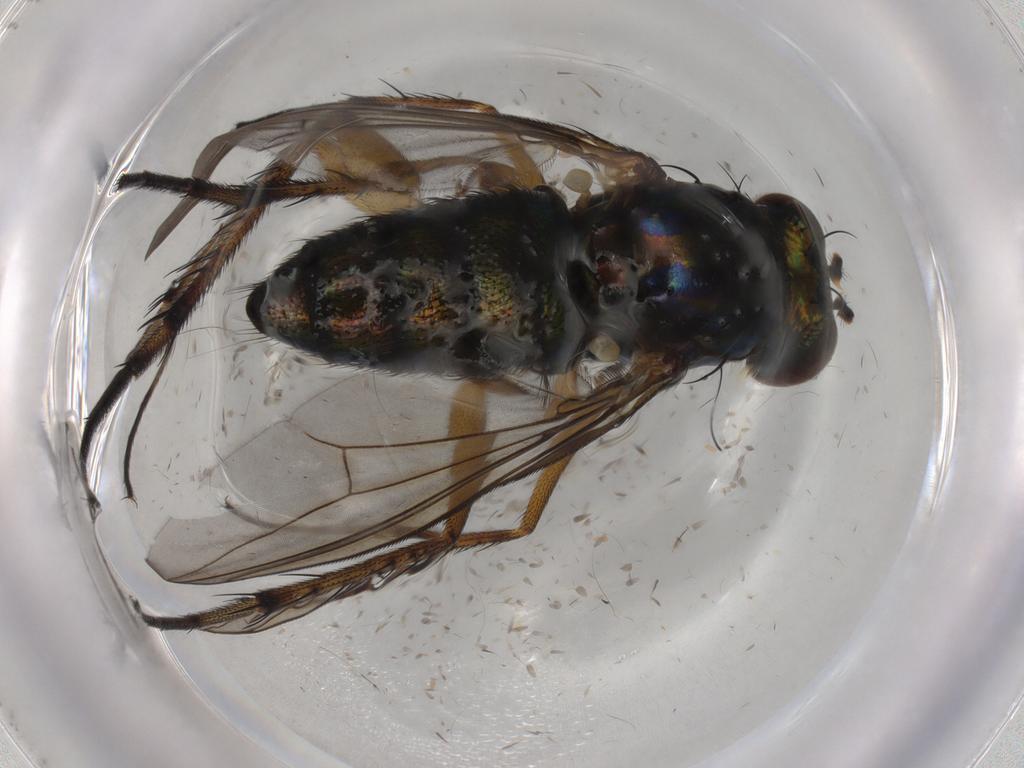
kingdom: Animalia
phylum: Arthropoda
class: Insecta
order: Diptera
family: Dolichopodidae
